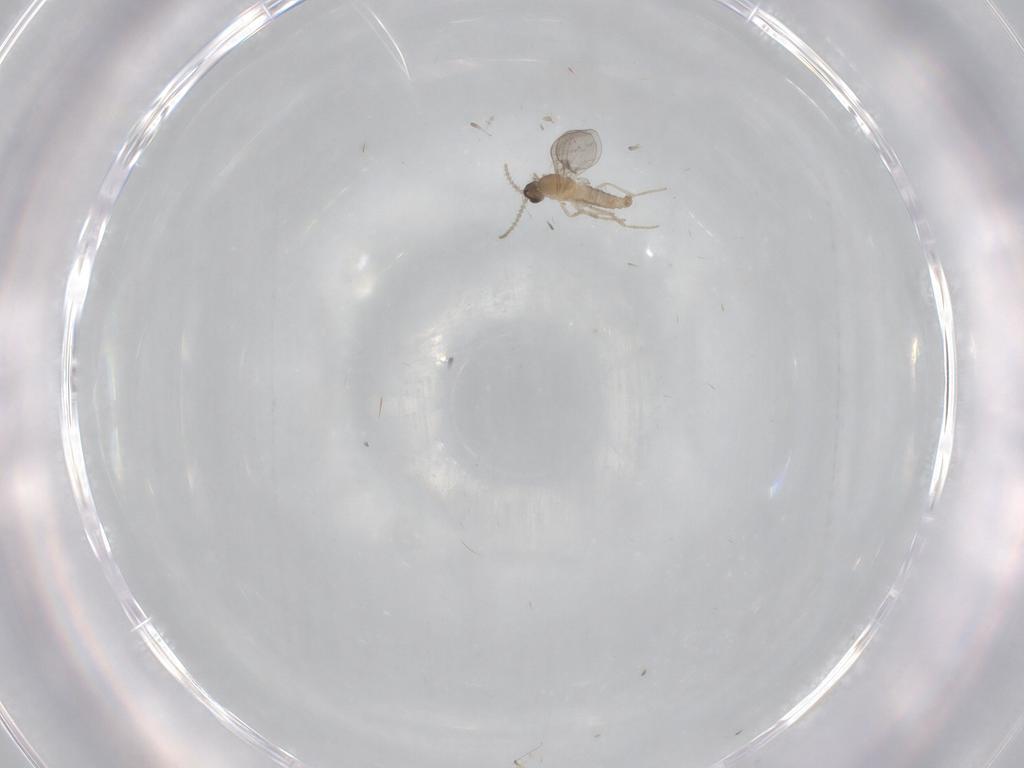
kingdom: Animalia
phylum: Arthropoda
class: Insecta
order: Diptera
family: Cecidomyiidae
